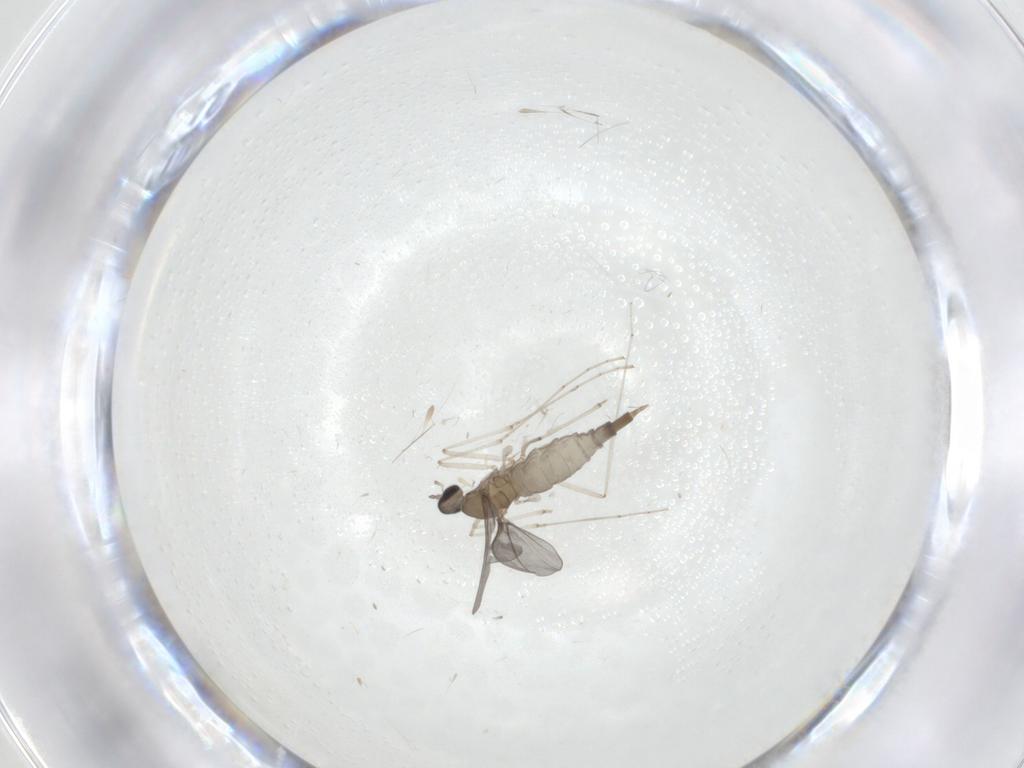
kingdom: Animalia
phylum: Arthropoda
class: Insecta
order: Diptera
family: Cecidomyiidae
